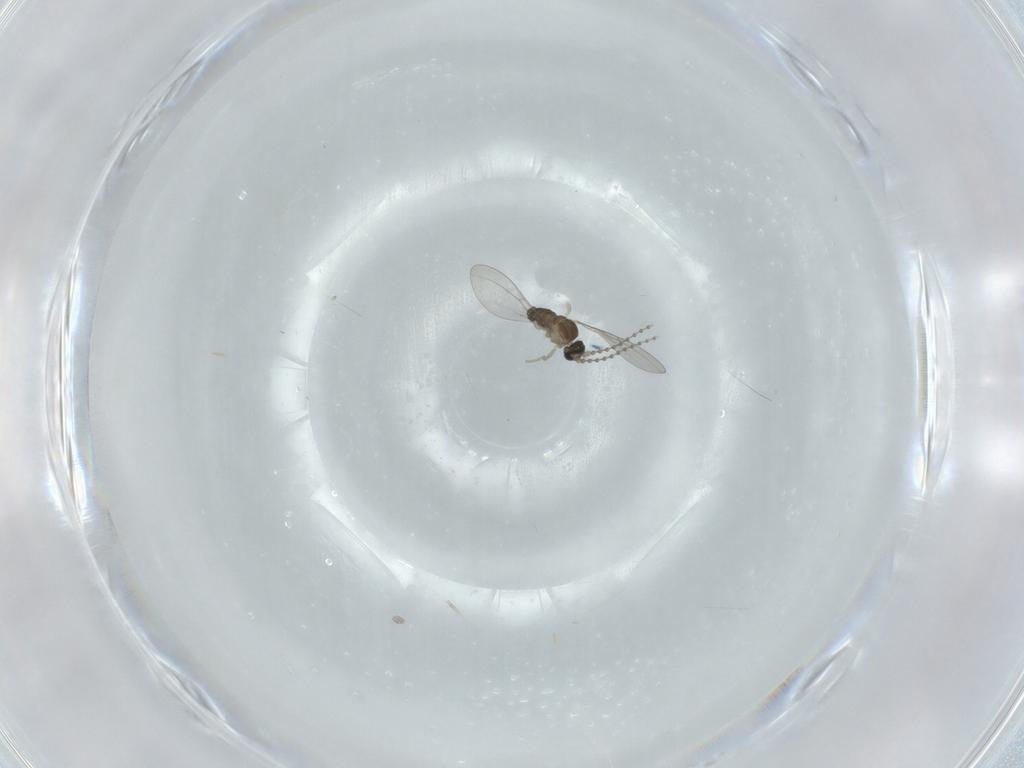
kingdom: Animalia
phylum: Arthropoda
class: Insecta
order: Diptera
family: Cecidomyiidae
